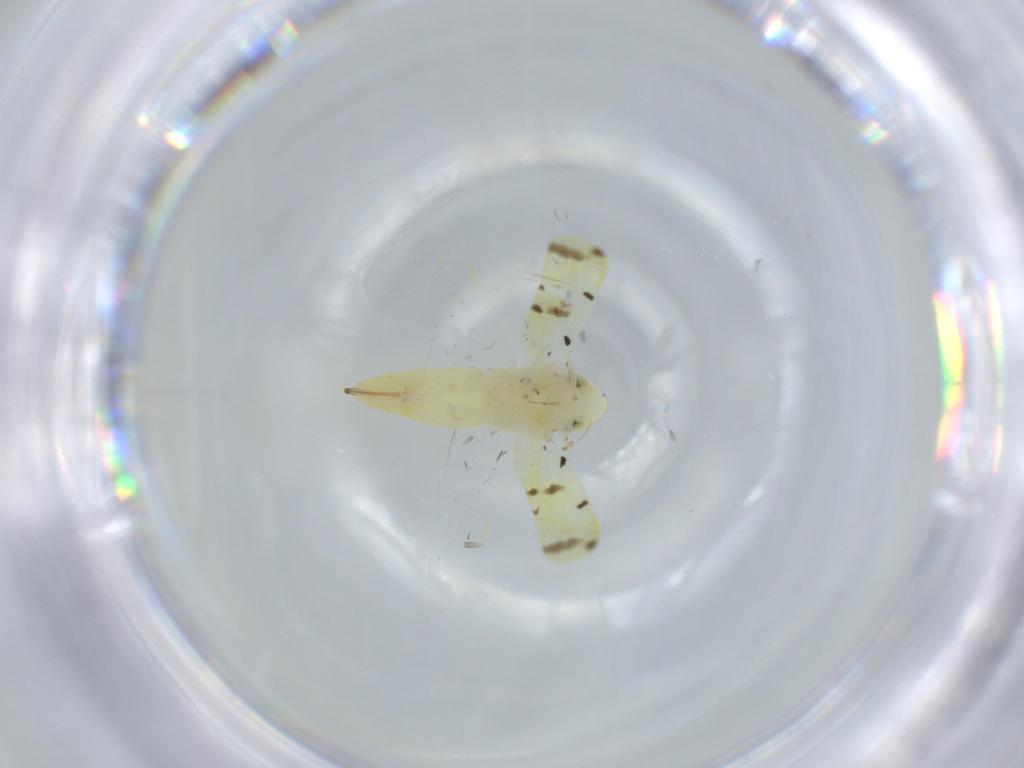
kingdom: Animalia
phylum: Arthropoda
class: Insecta
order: Hemiptera
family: Cicadellidae
